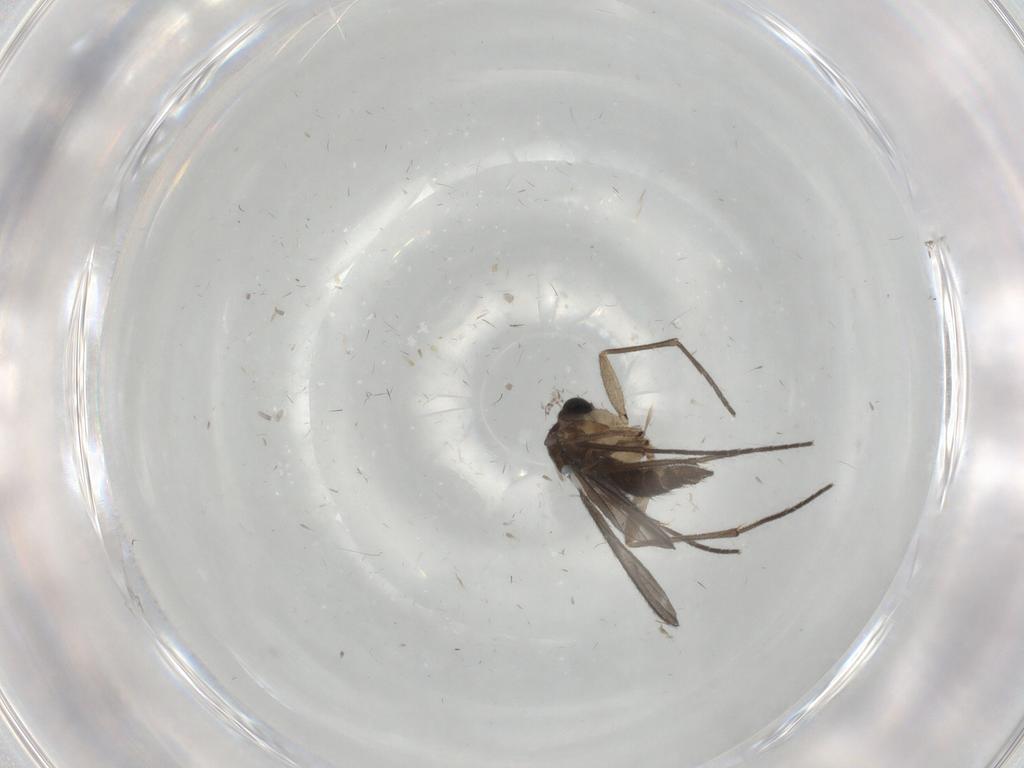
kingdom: Animalia
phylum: Arthropoda
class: Insecta
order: Diptera
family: Sciaridae
